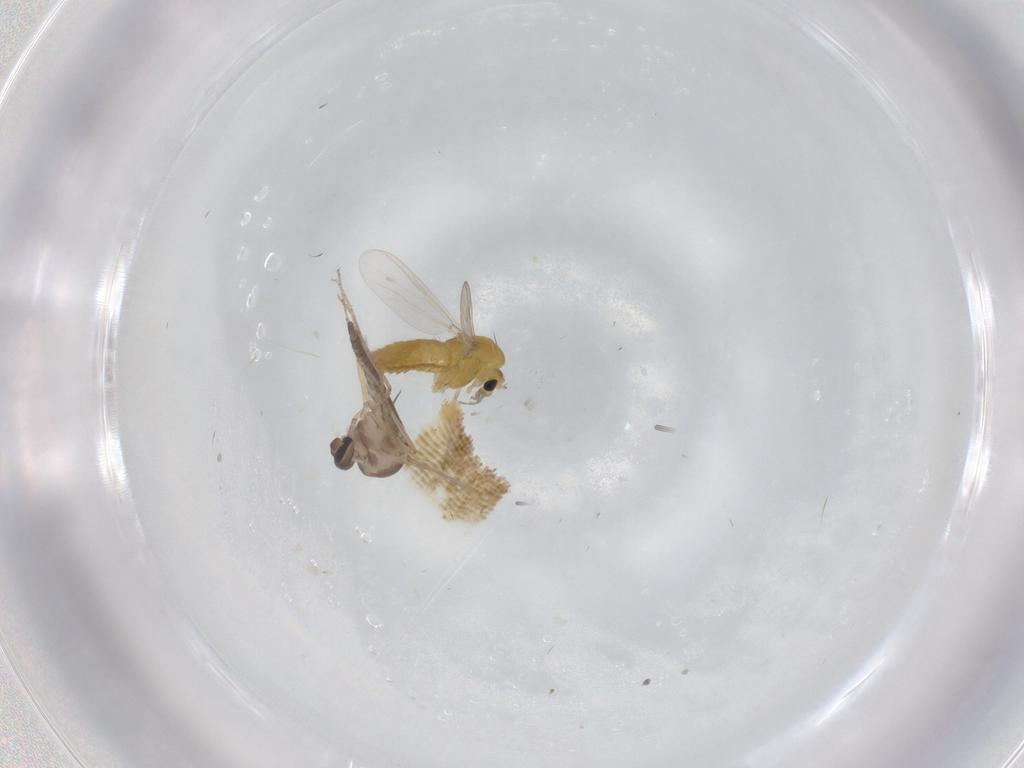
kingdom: Animalia
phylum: Arthropoda
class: Insecta
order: Diptera
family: Chironomidae
